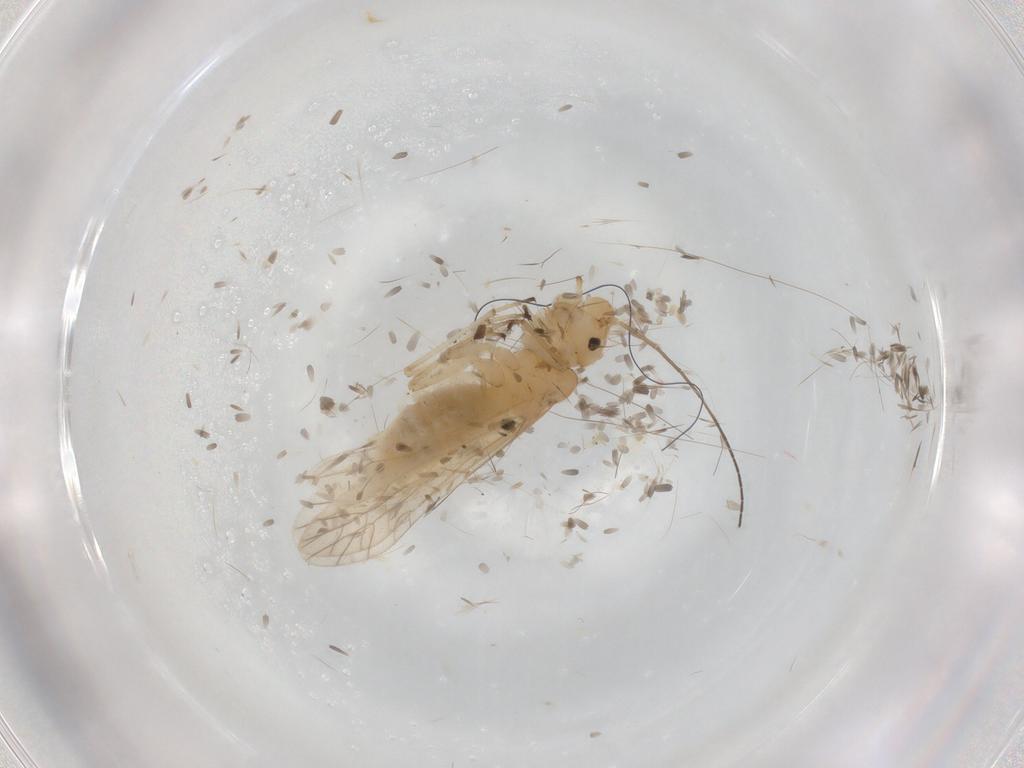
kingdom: Animalia
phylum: Arthropoda
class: Insecta
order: Psocodea
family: Caeciliusidae
